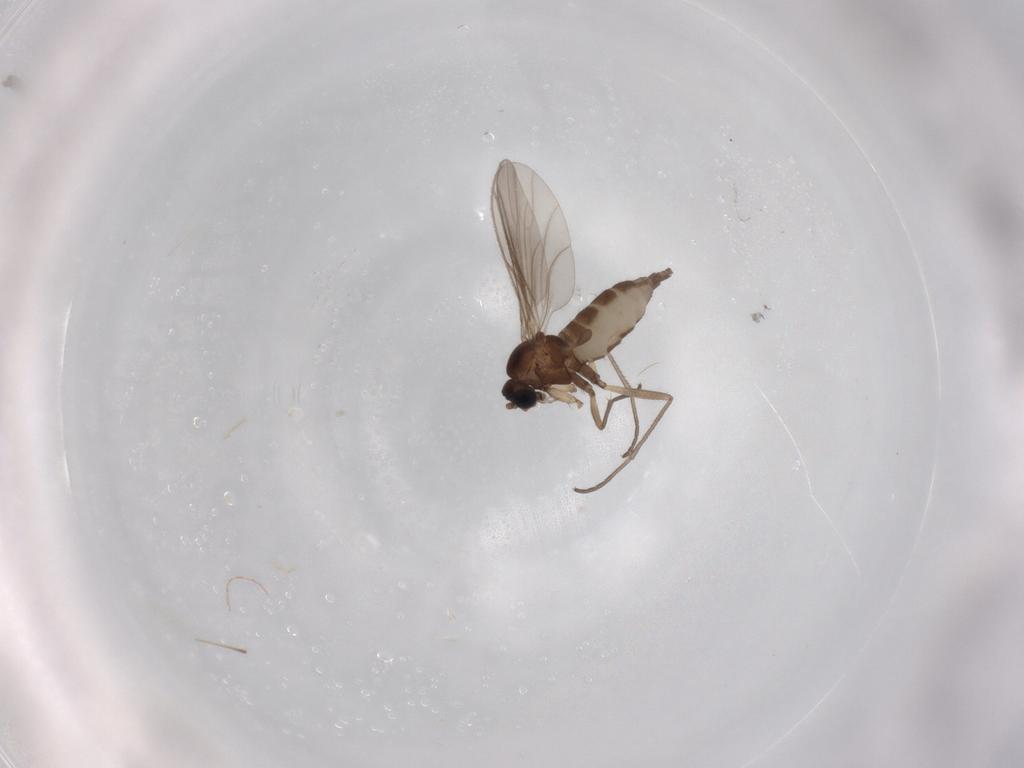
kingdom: Animalia
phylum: Arthropoda
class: Insecta
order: Diptera
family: Sciaridae
